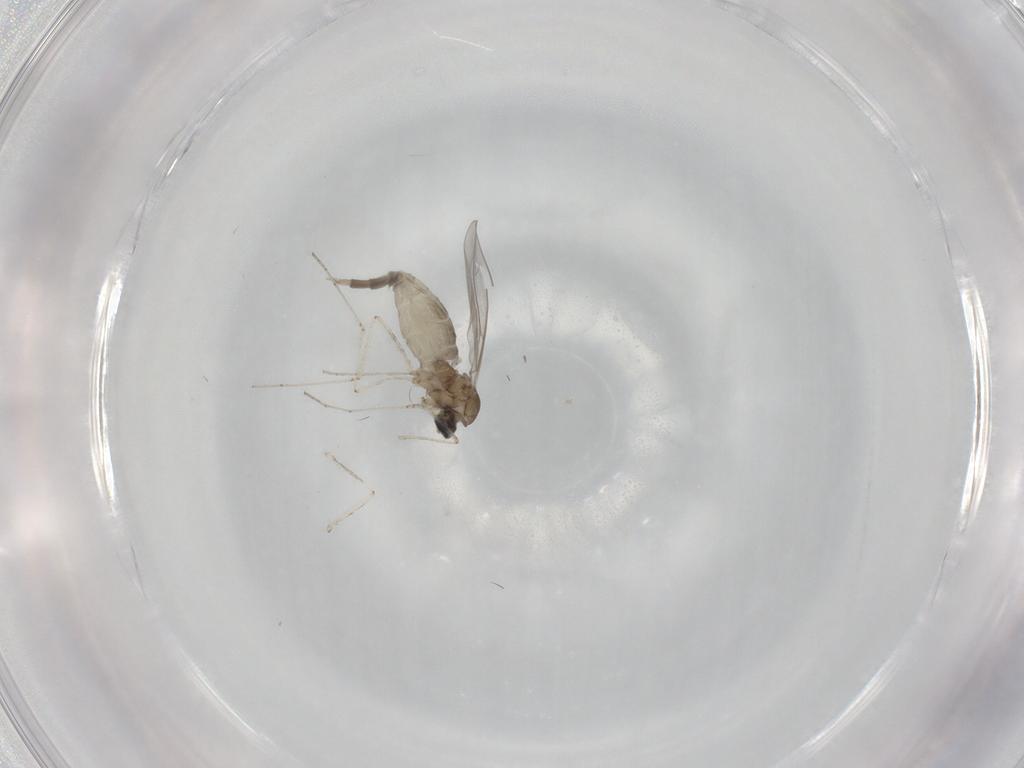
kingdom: Animalia
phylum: Arthropoda
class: Insecta
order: Diptera
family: Cecidomyiidae
